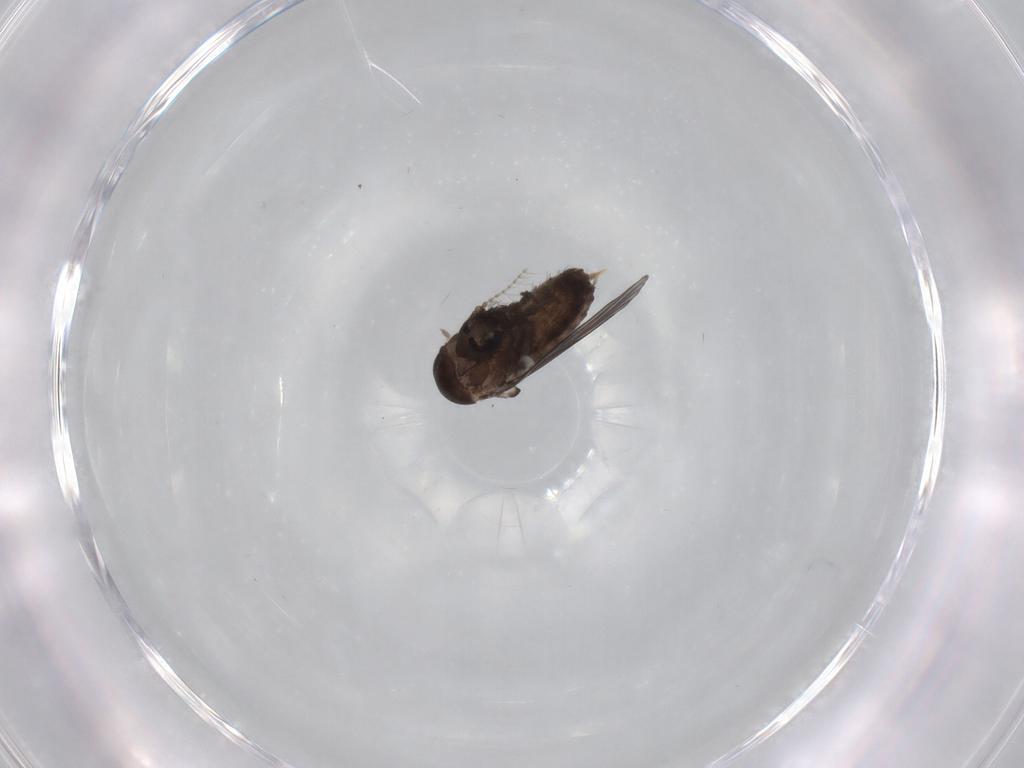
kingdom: Animalia
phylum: Arthropoda
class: Insecta
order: Diptera
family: Psychodidae
